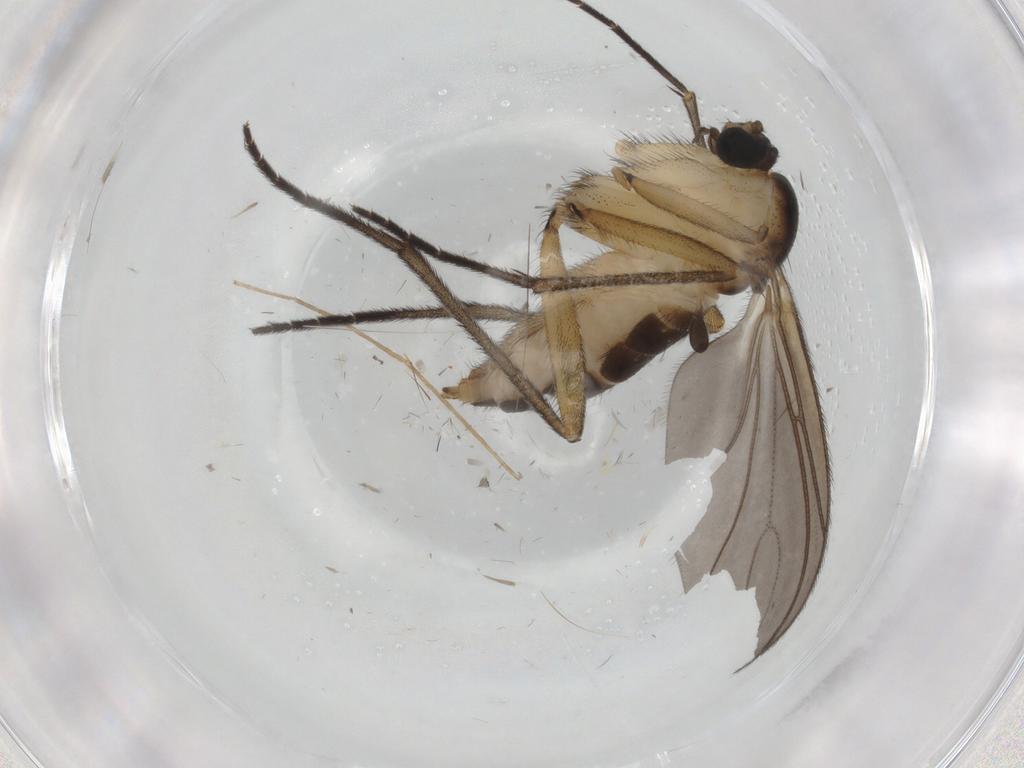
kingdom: Animalia
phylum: Arthropoda
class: Insecta
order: Diptera
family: Sciaridae
